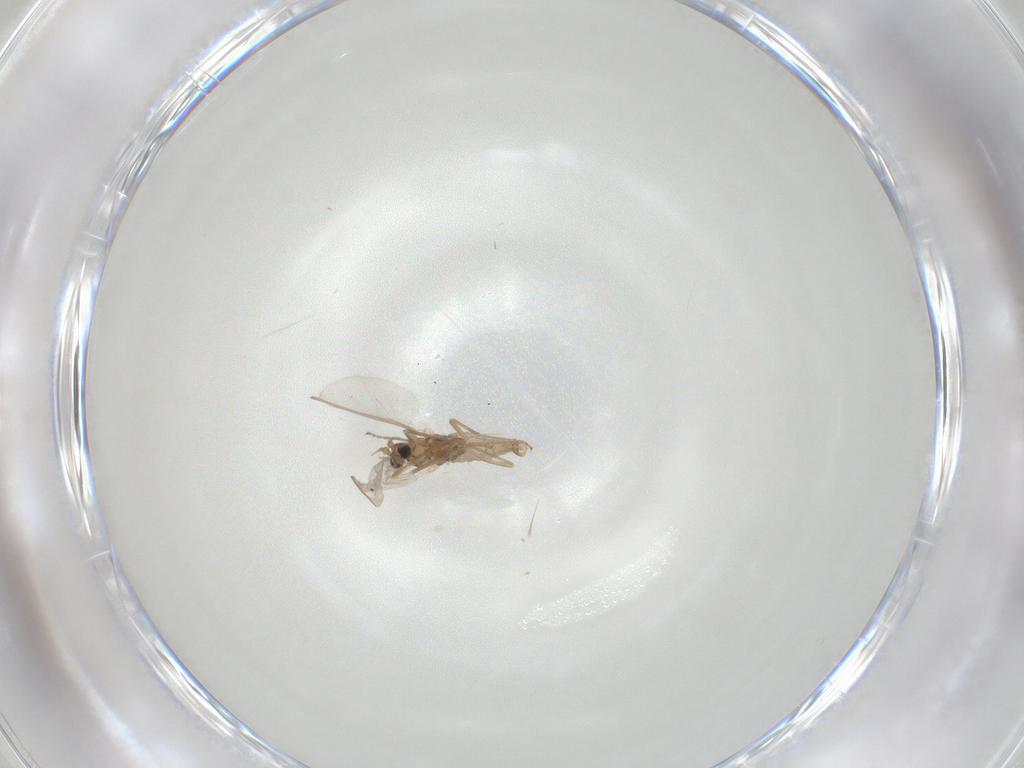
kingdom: Animalia
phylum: Arthropoda
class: Insecta
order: Diptera
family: Cecidomyiidae
